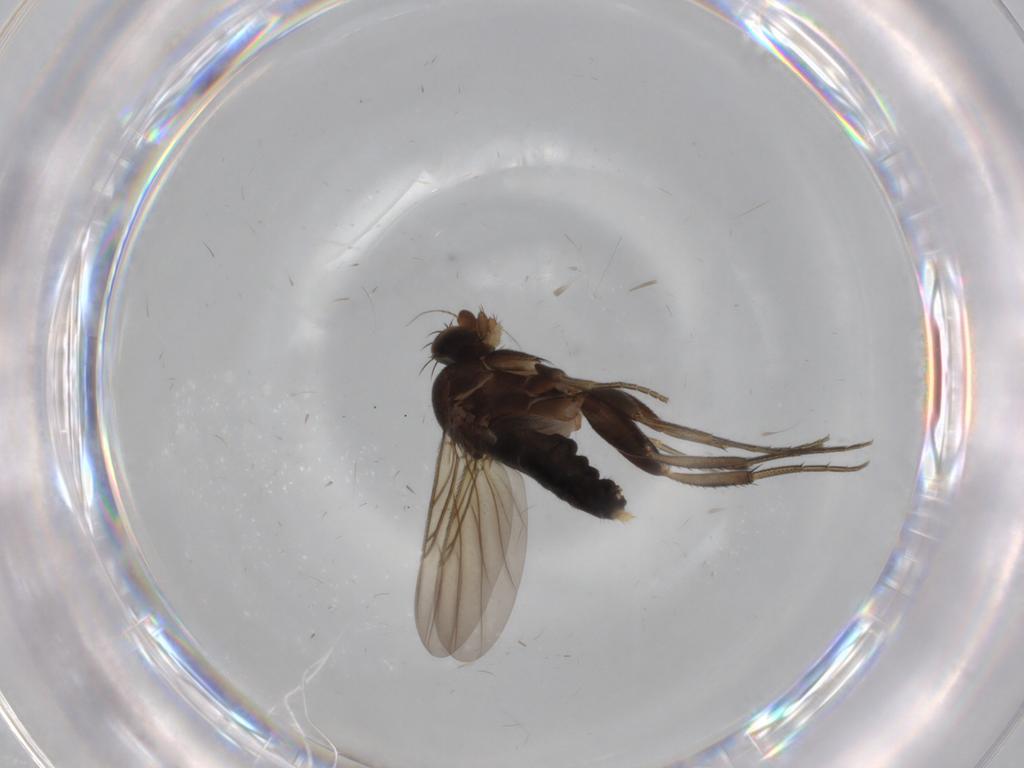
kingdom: Animalia
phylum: Arthropoda
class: Insecta
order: Diptera
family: Phoridae
